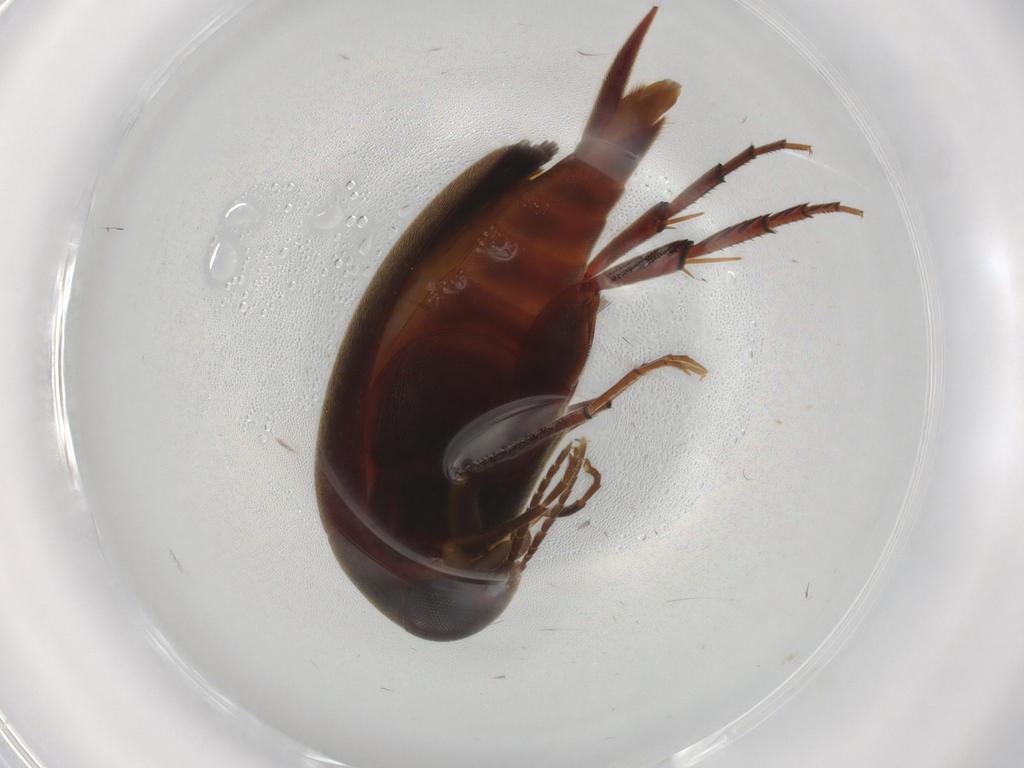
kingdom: Animalia
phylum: Arthropoda
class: Insecta
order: Coleoptera
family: Mordellidae
